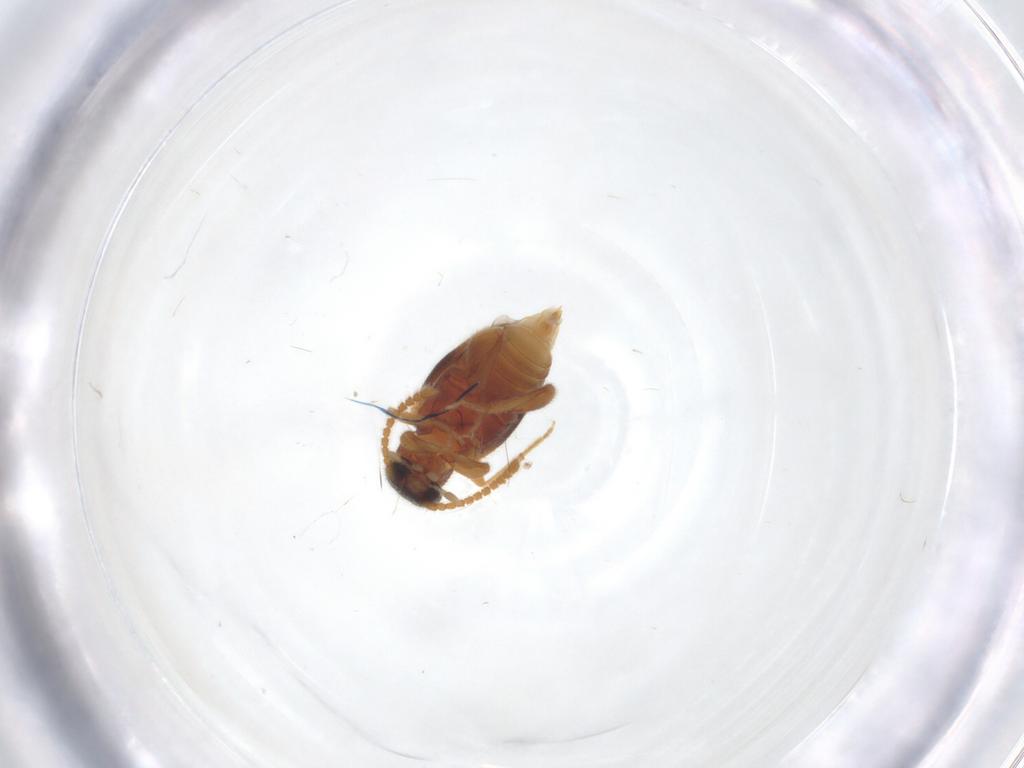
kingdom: Animalia
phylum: Arthropoda
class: Insecta
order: Coleoptera
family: Aderidae
